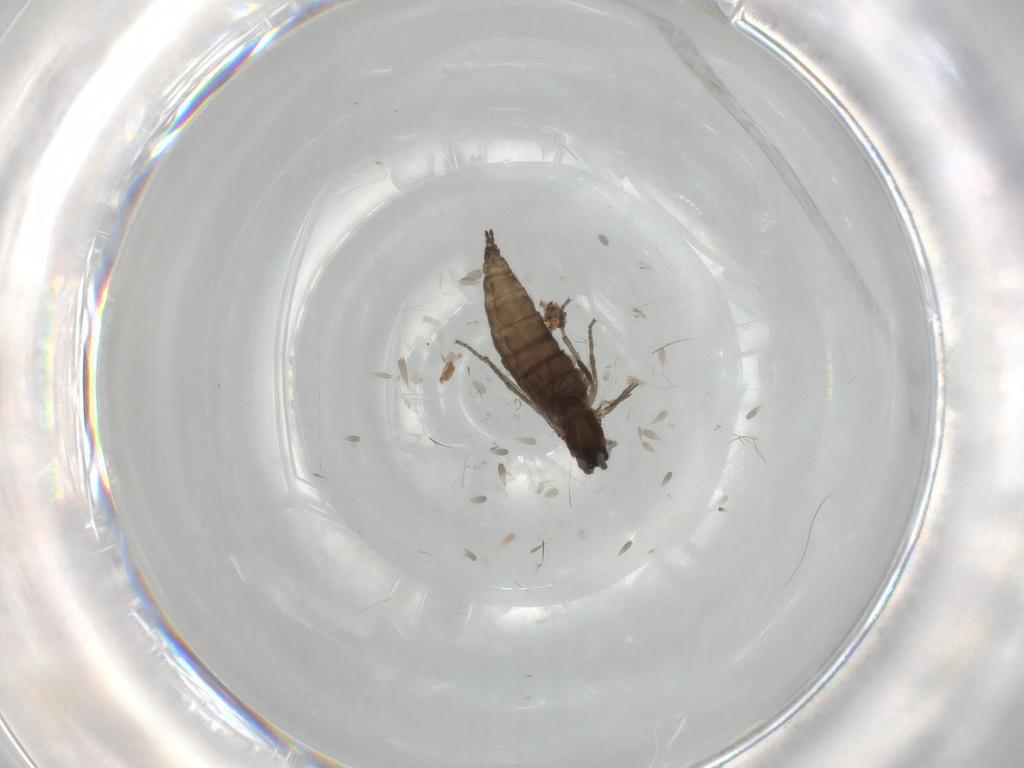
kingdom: Animalia
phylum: Arthropoda
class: Insecta
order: Diptera
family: Sciaridae
